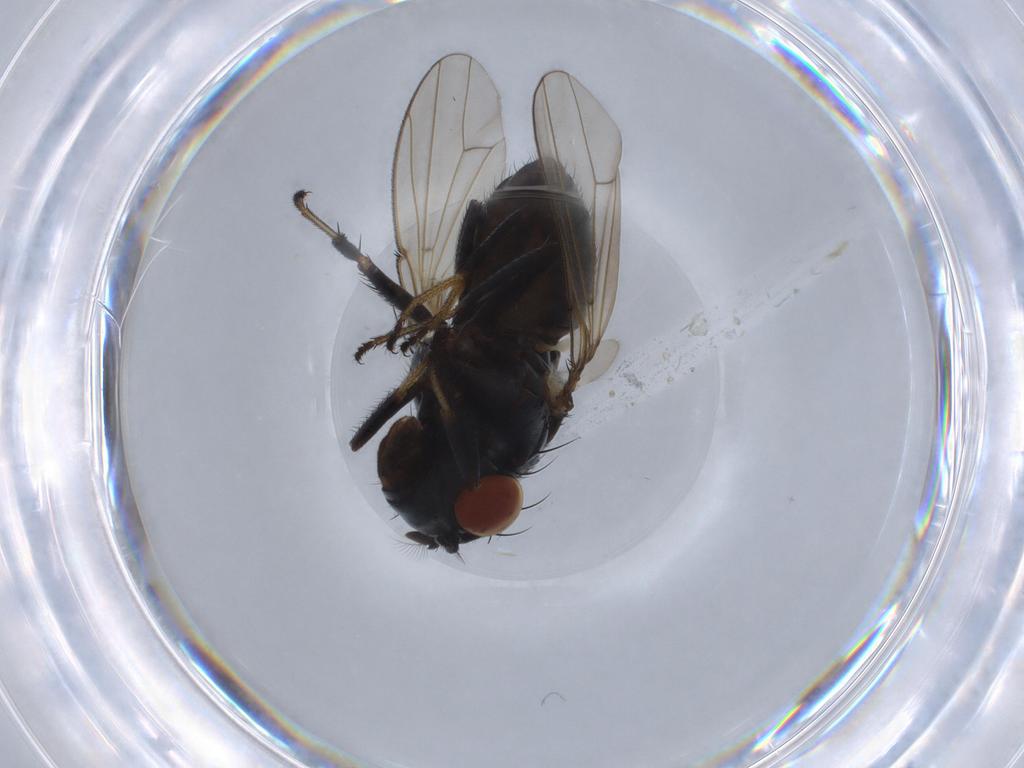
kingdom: Animalia
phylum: Arthropoda
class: Insecta
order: Diptera
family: Ephydridae
